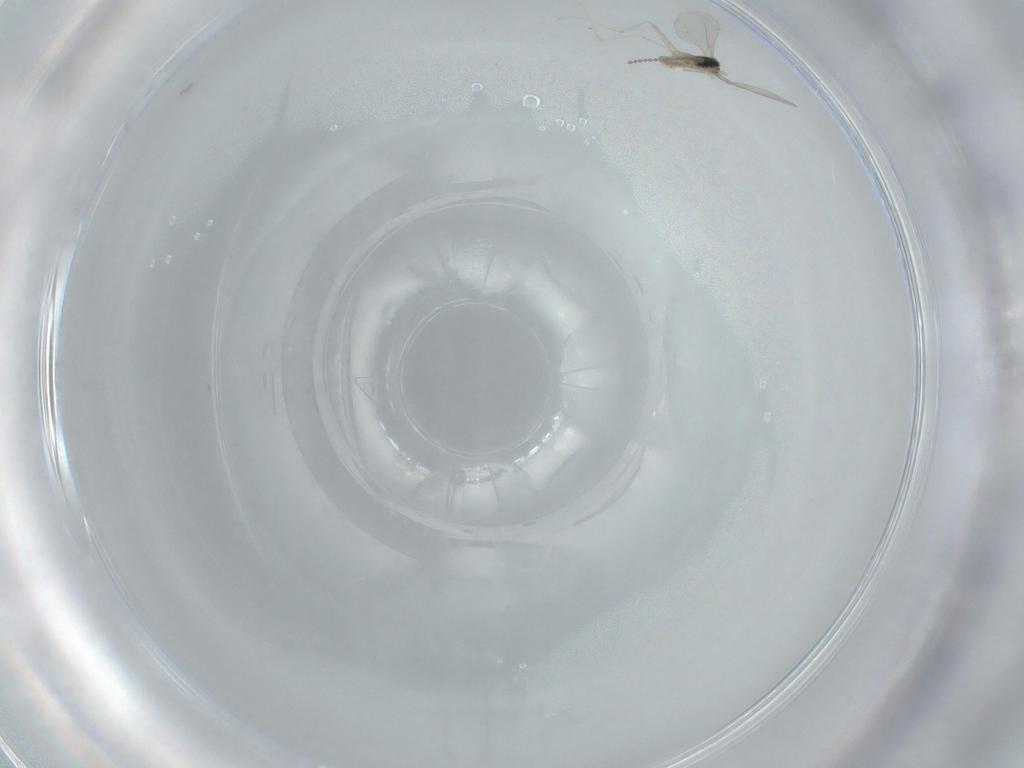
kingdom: Animalia
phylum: Arthropoda
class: Insecta
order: Diptera
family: Cecidomyiidae
